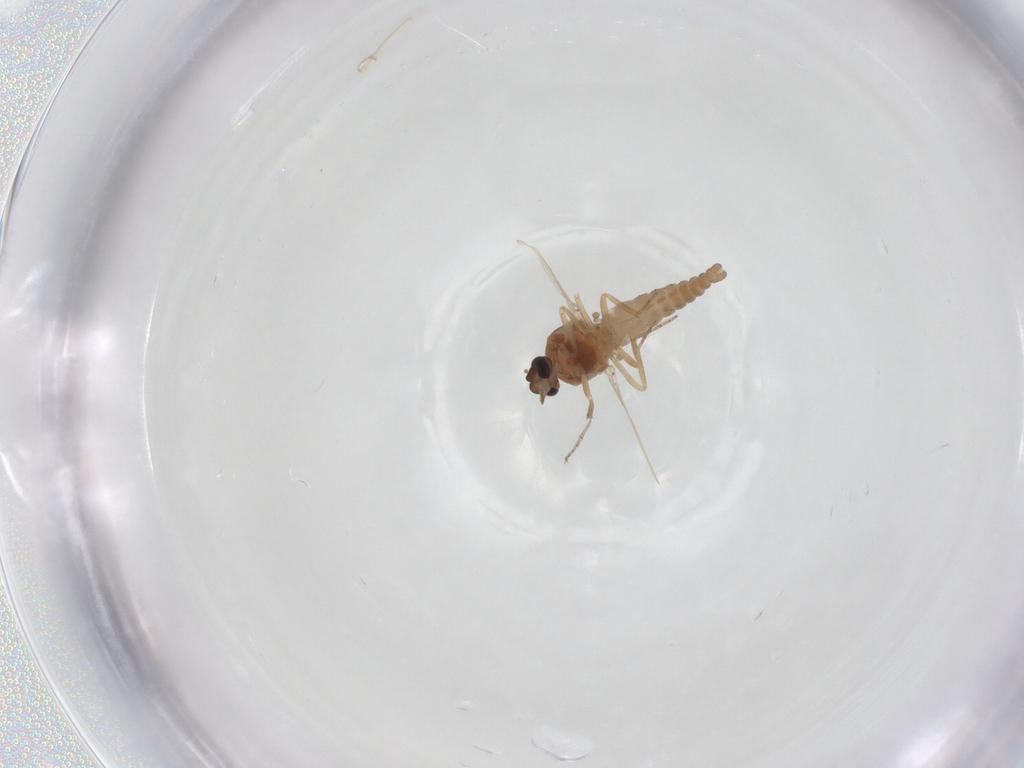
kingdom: Animalia
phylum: Arthropoda
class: Insecta
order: Diptera
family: Ceratopogonidae
